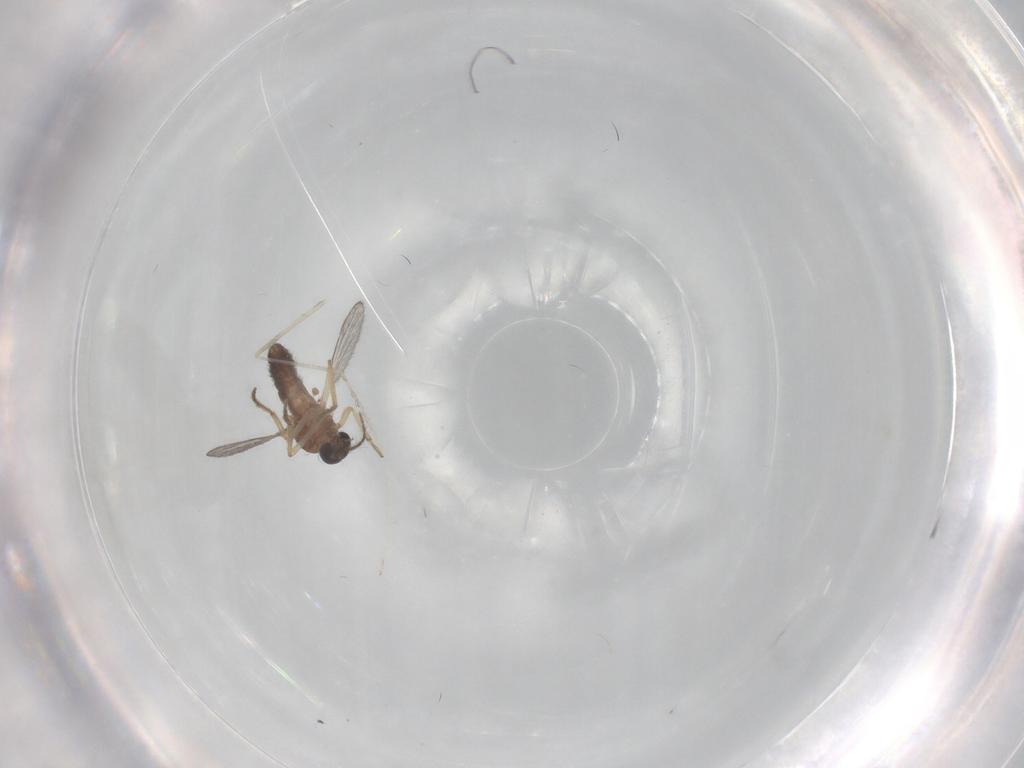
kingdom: Animalia
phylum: Arthropoda
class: Insecta
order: Diptera
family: Ceratopogonidae
